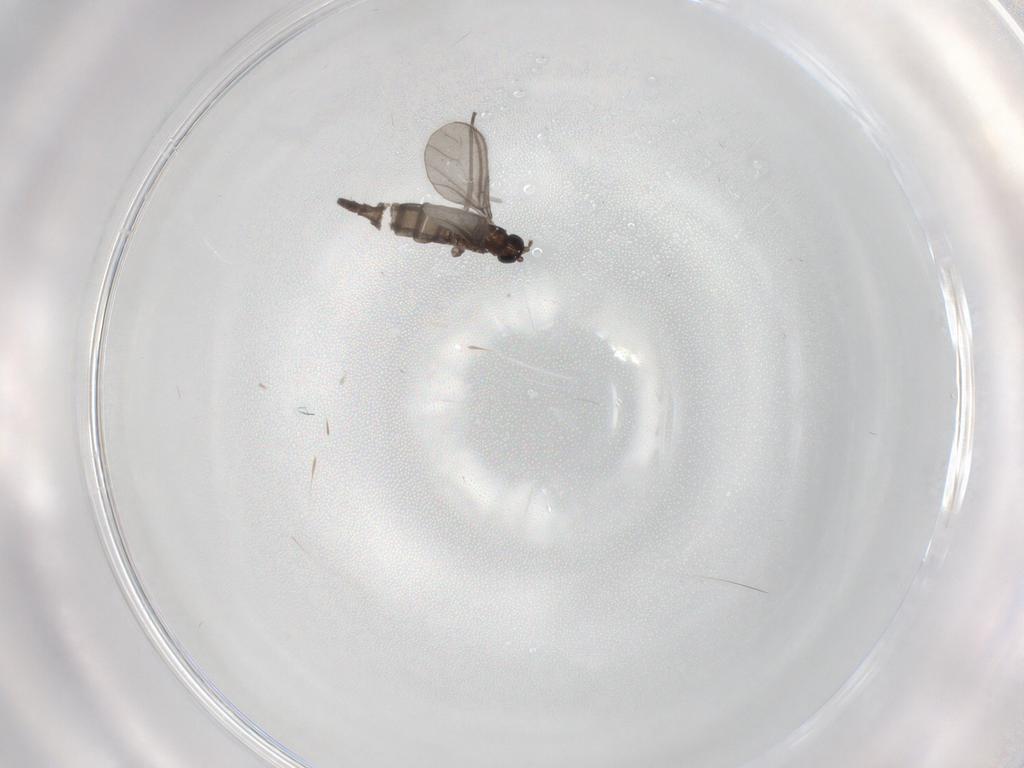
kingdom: Animalia
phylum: Arthropoda
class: Insecta
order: Diptera
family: Sciaridae
